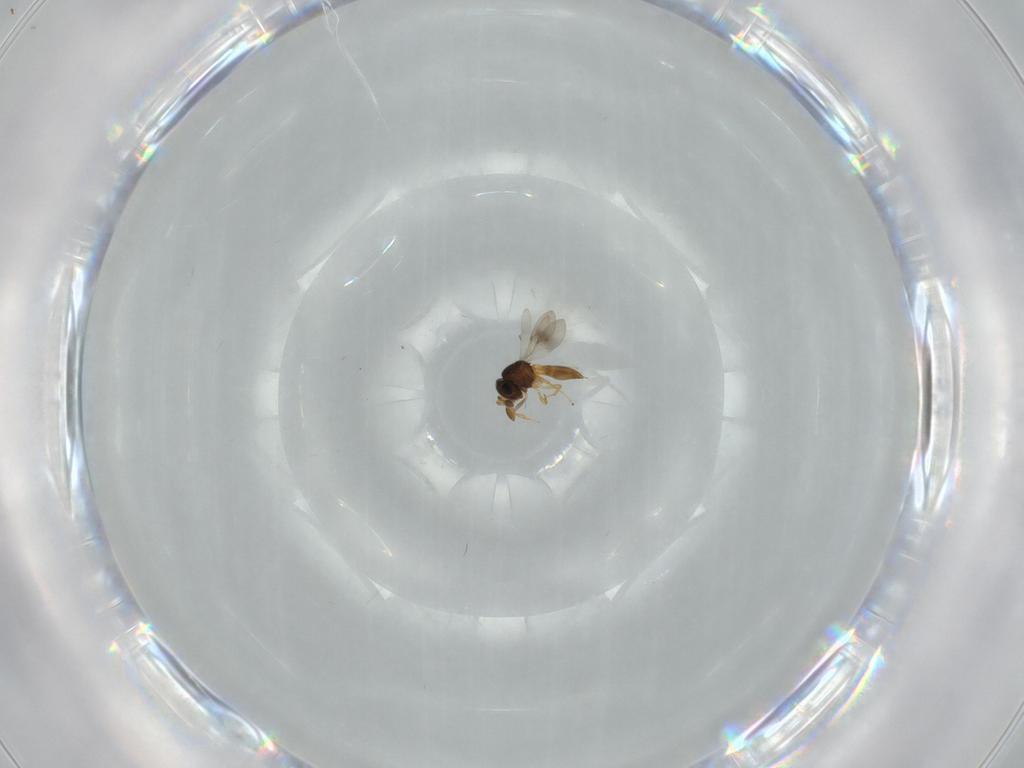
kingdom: Animalia
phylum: Arthropoda
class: Insecta
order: Hymenoptera
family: Scelionidae
